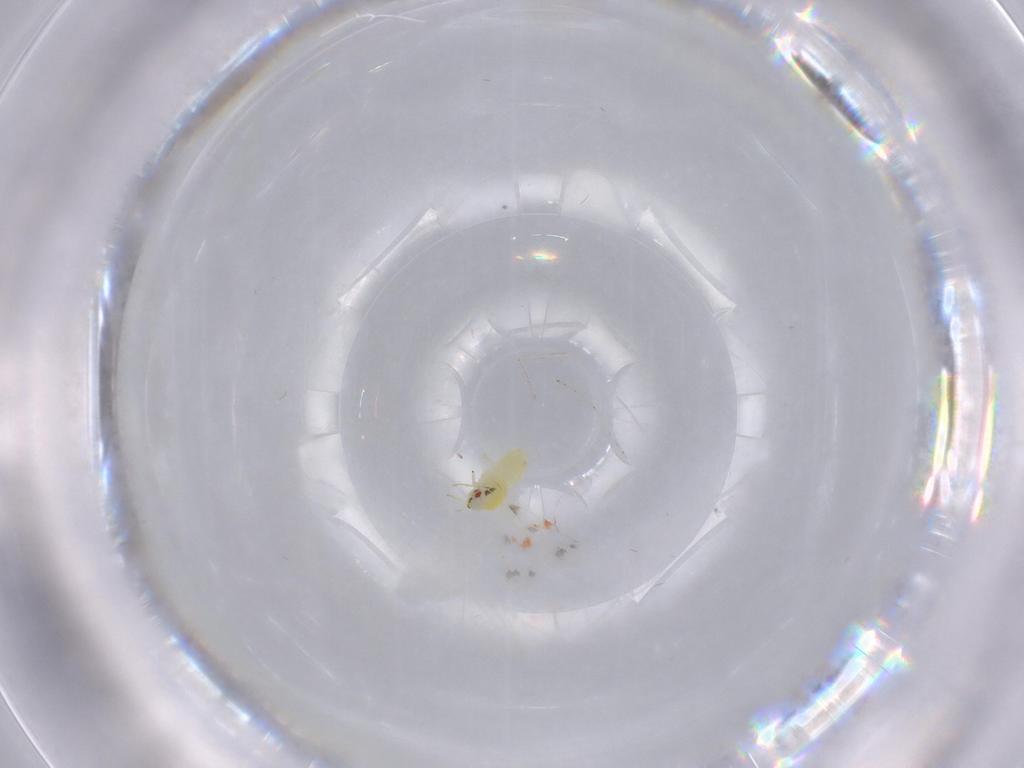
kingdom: Animalia
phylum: Arthropoda
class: Insecta
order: Hemiptera
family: Aleyrodidae
